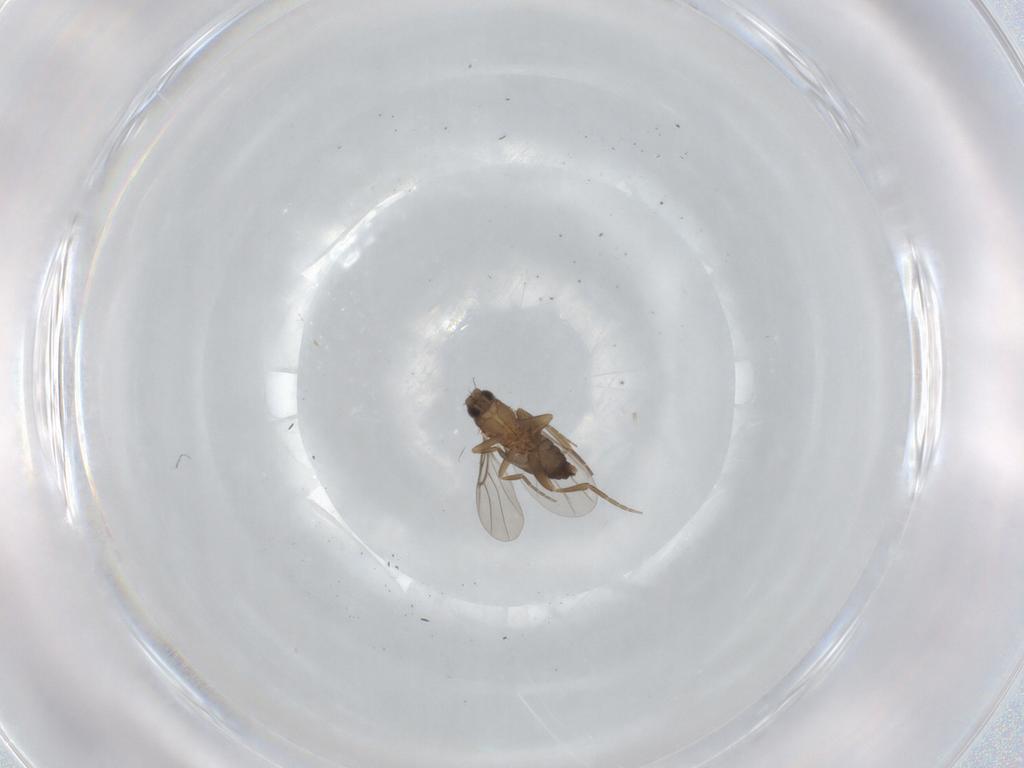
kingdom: Animalia
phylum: Arthropoda
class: Insecta
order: Diptera
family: Phoridae
